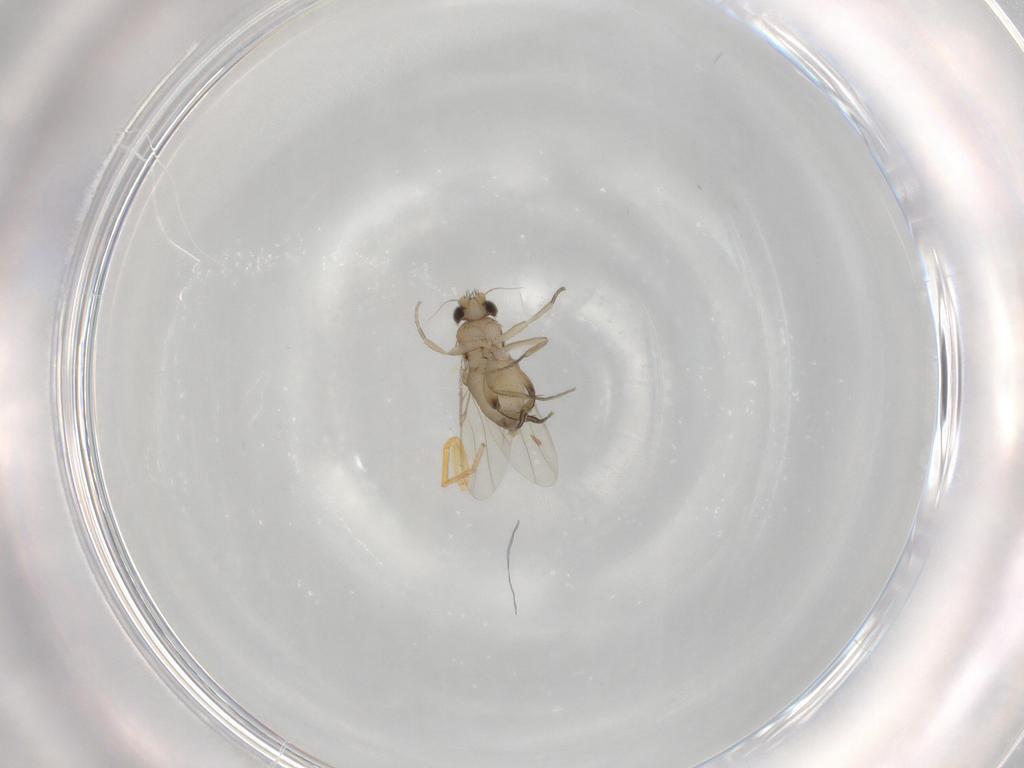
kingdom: Animalia
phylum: Arthropoda
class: Insecta
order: Diptera
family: Phoridae
